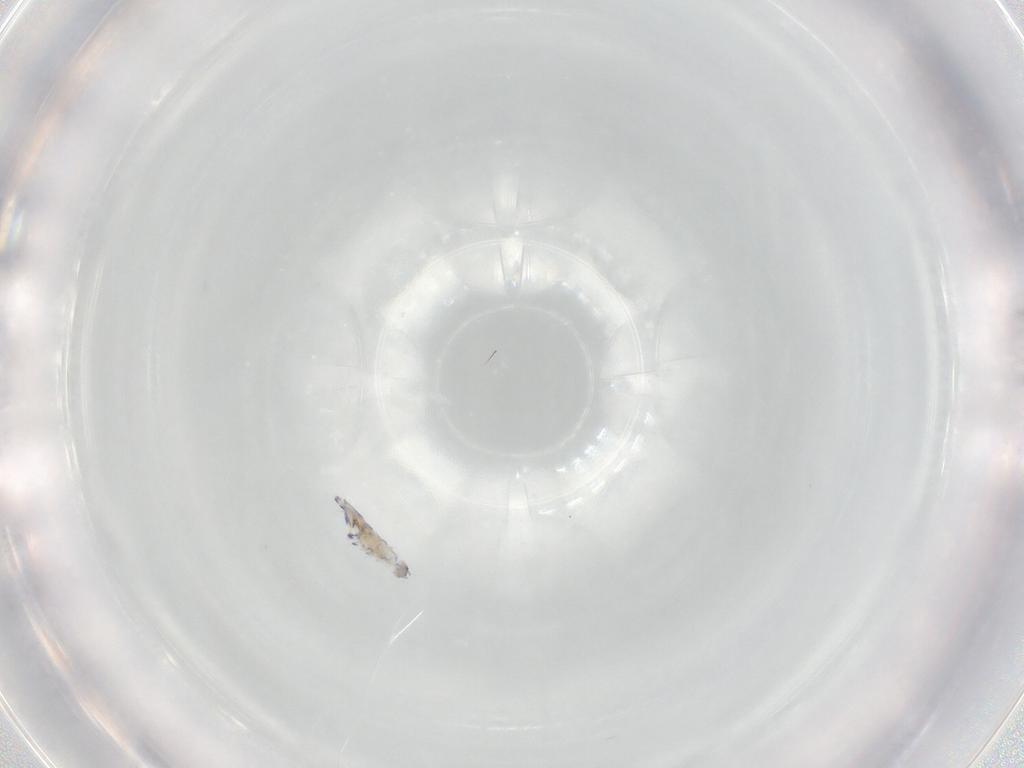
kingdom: Animalia
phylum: Arthropoda
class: Collembola
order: Entomobryomorpha
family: Entomobryidae
